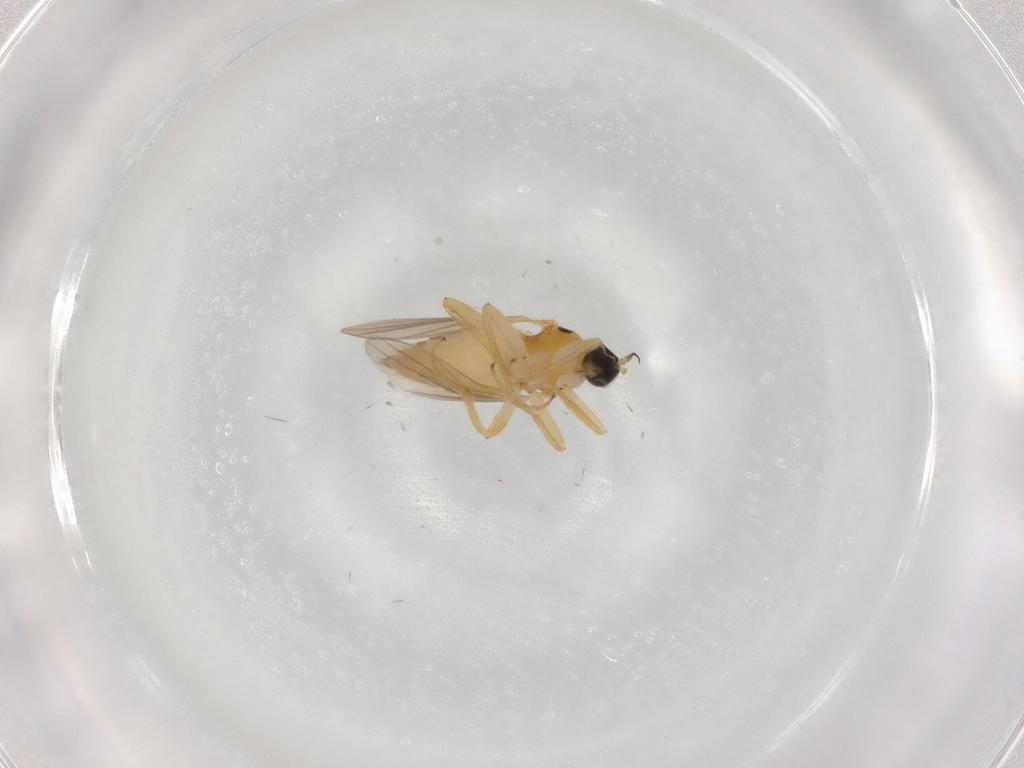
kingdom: Animalia
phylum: Arthropoda
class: Insecta
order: Diptera
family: Hybotidae
